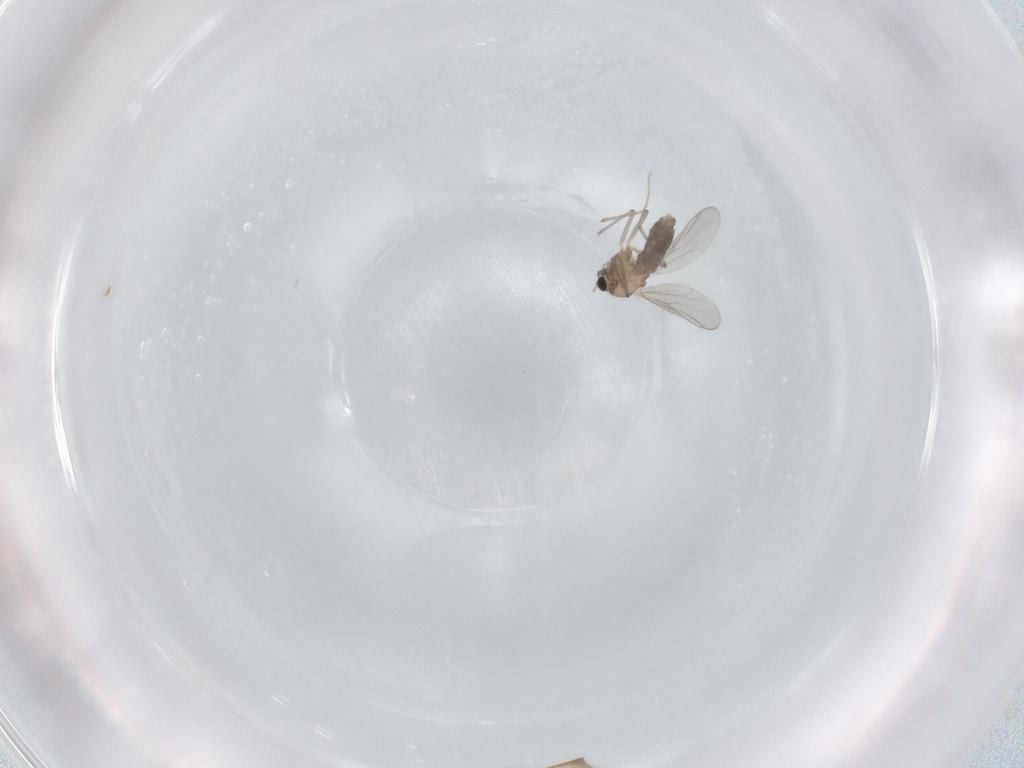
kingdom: Animalia
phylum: Arthropoda
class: Insecta
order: Diptera
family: Chironomidae
